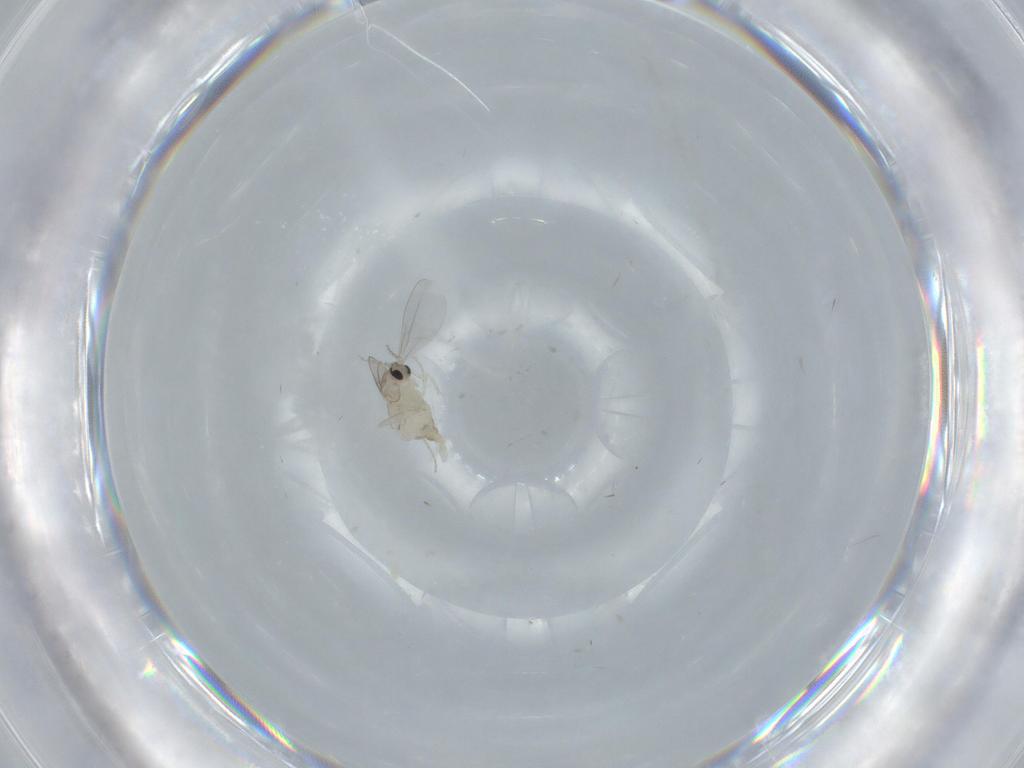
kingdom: Animalia
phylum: Arthropoda
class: Insecta
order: Diptera
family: Cecidomyiidae
